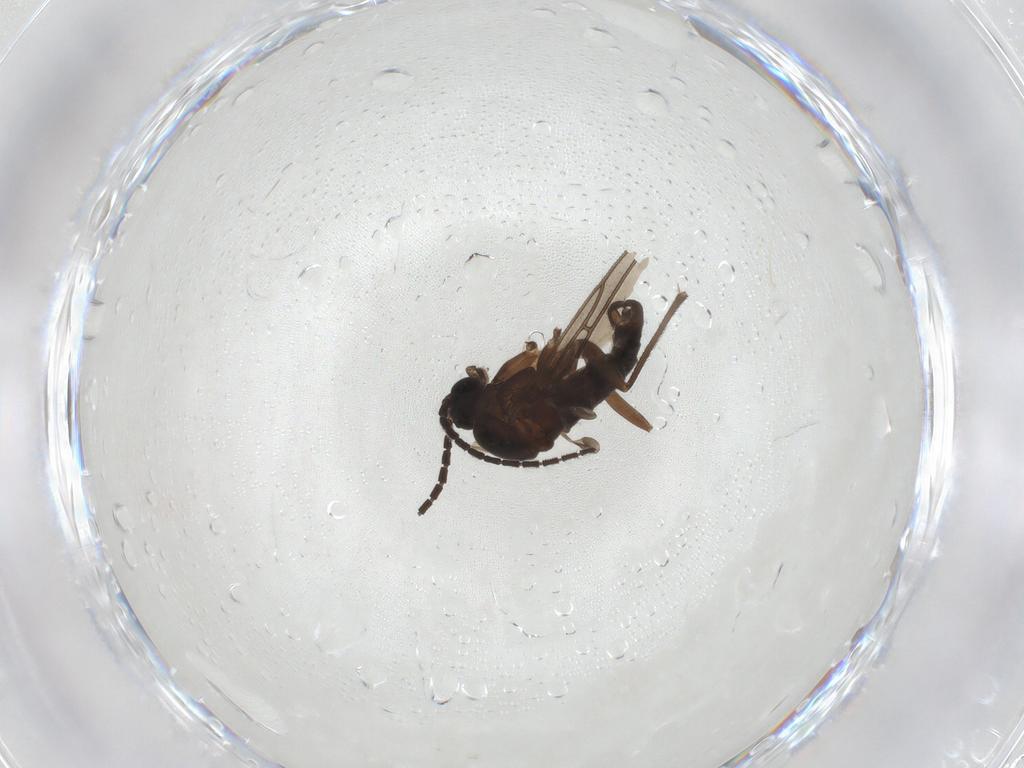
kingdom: Animalia
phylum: Arthropoda
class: Insecta
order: Diptera
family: Sciaridae
